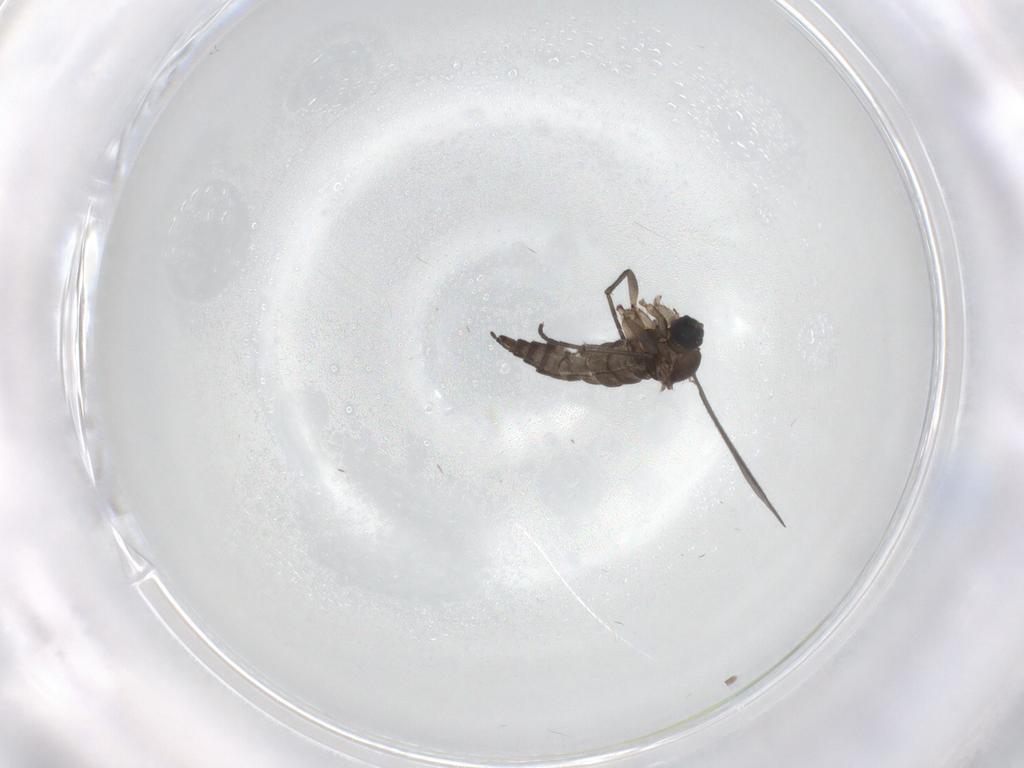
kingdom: Animalia
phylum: Arthropoda
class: Insecta
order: Diptera
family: Sciaridae
